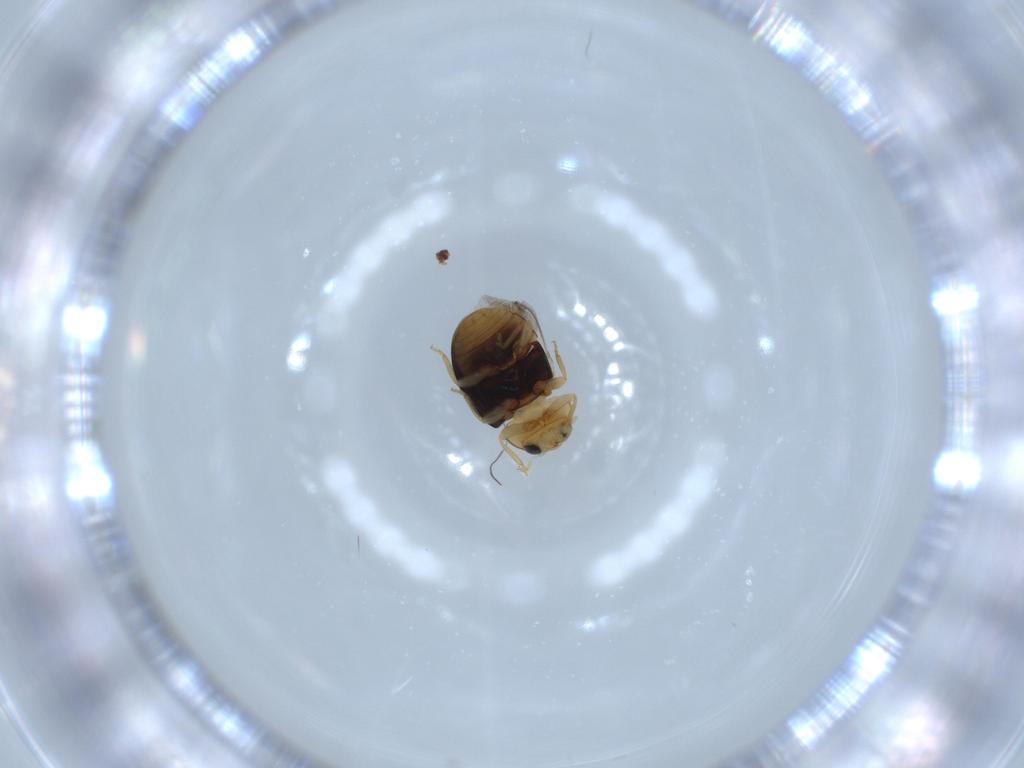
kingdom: Animalia
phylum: Arthropoda
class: Insecta
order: Coleoptera
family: Coccinellidae
